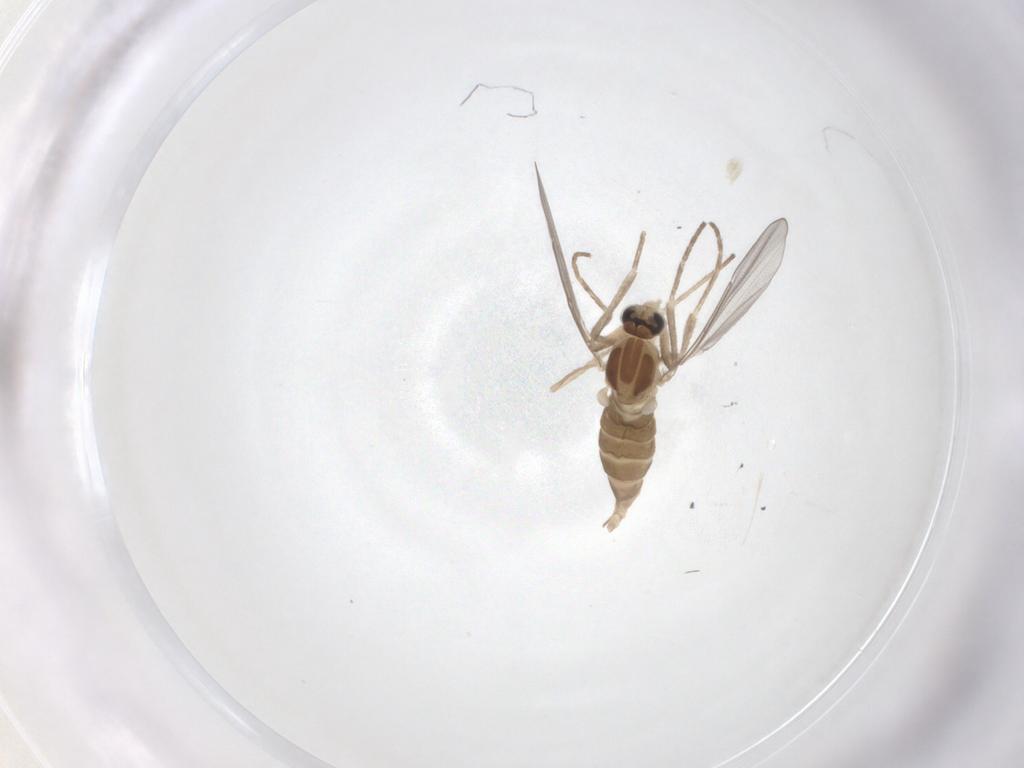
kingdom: Animalia
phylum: Arthropoda
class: Insecta
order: Diptera
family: Cecidomyiidae
